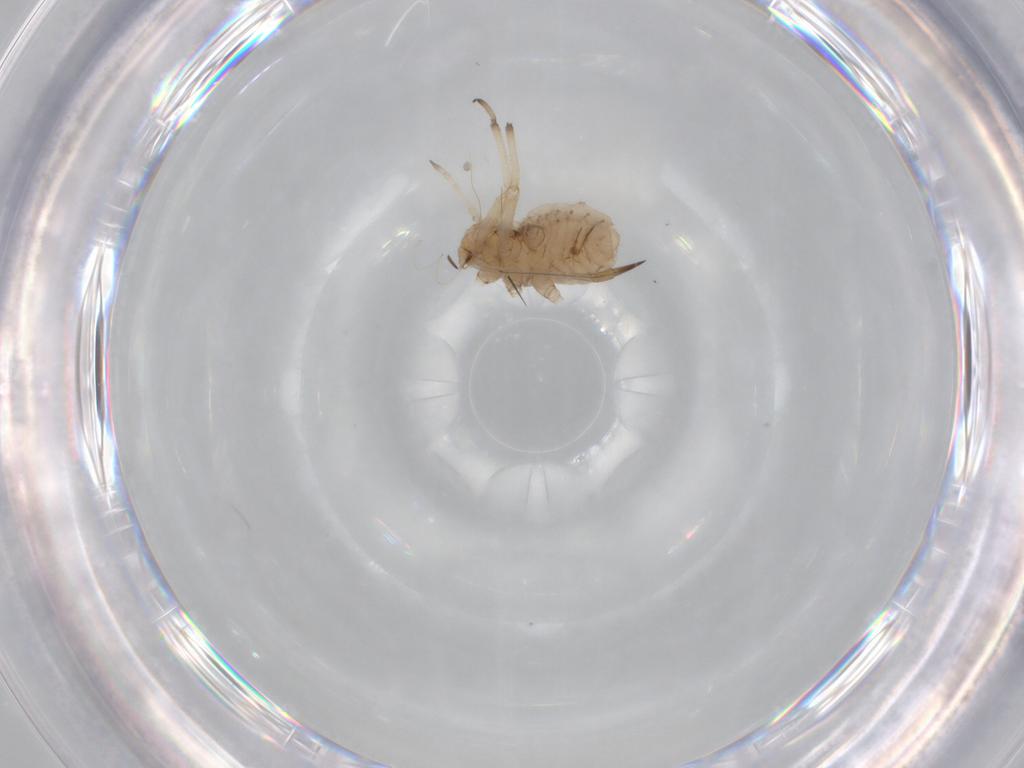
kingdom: Animalia
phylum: Arthropoda
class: Insecta
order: Hemiptera
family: Aphididae
